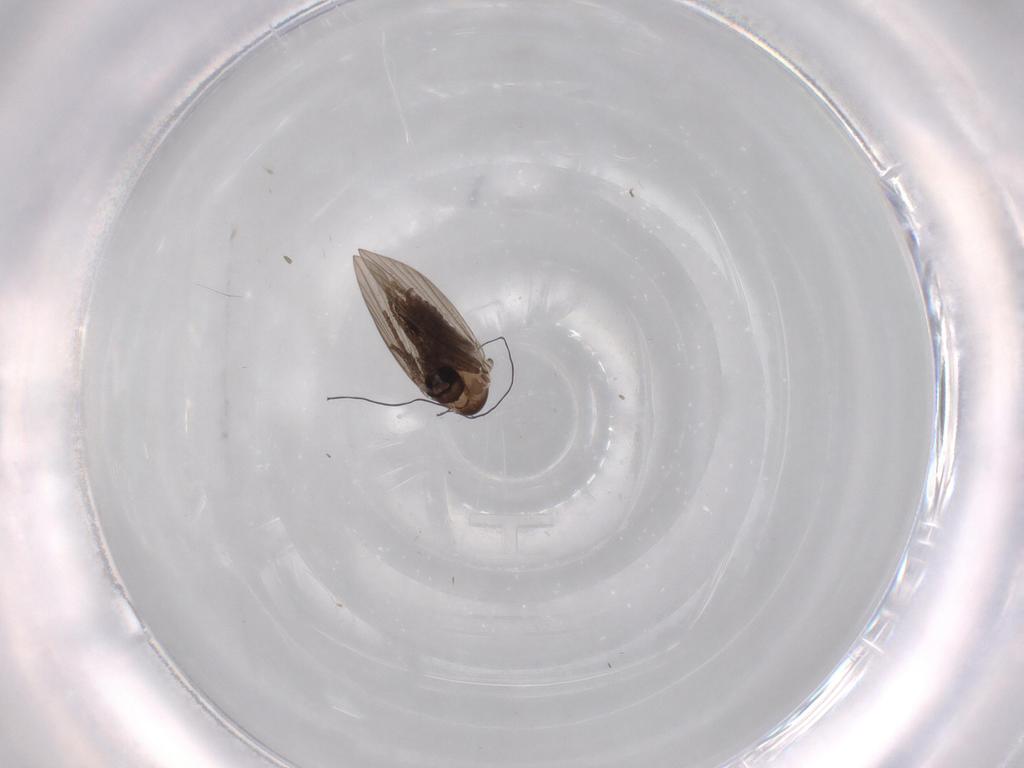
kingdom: Animalia
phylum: Arthropoda
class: Insecta
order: Diptera
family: Psychodidae
